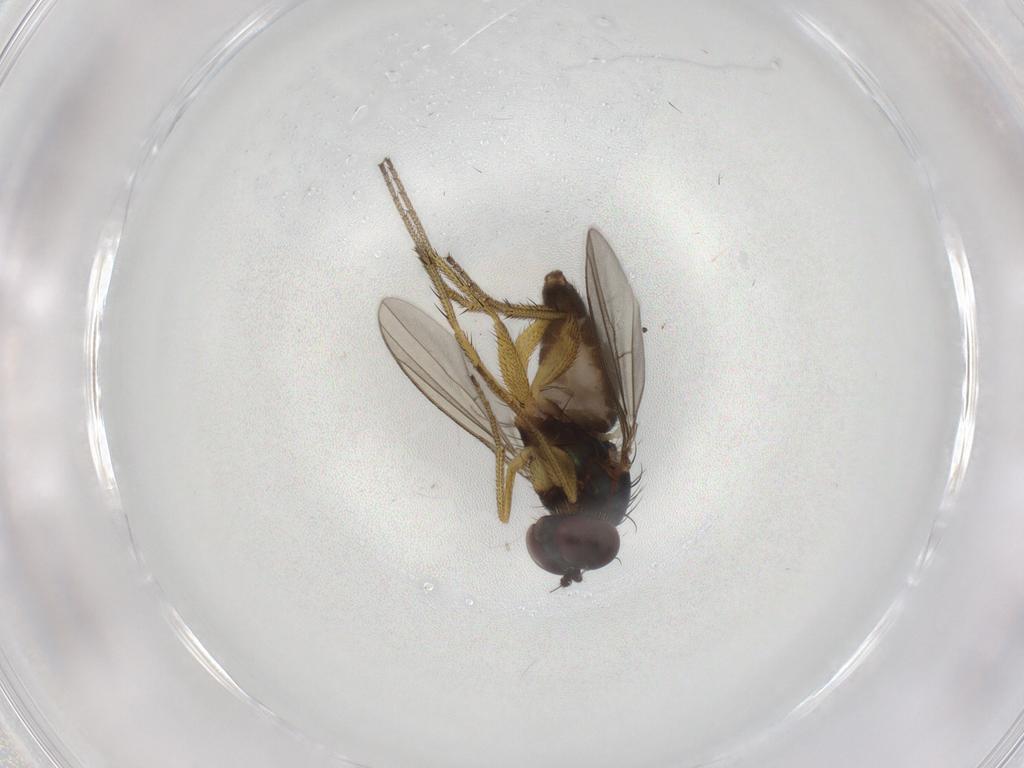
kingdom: Animalia
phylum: Arthropoda
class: Insecta
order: Diptera
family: Ceratopogonidae
